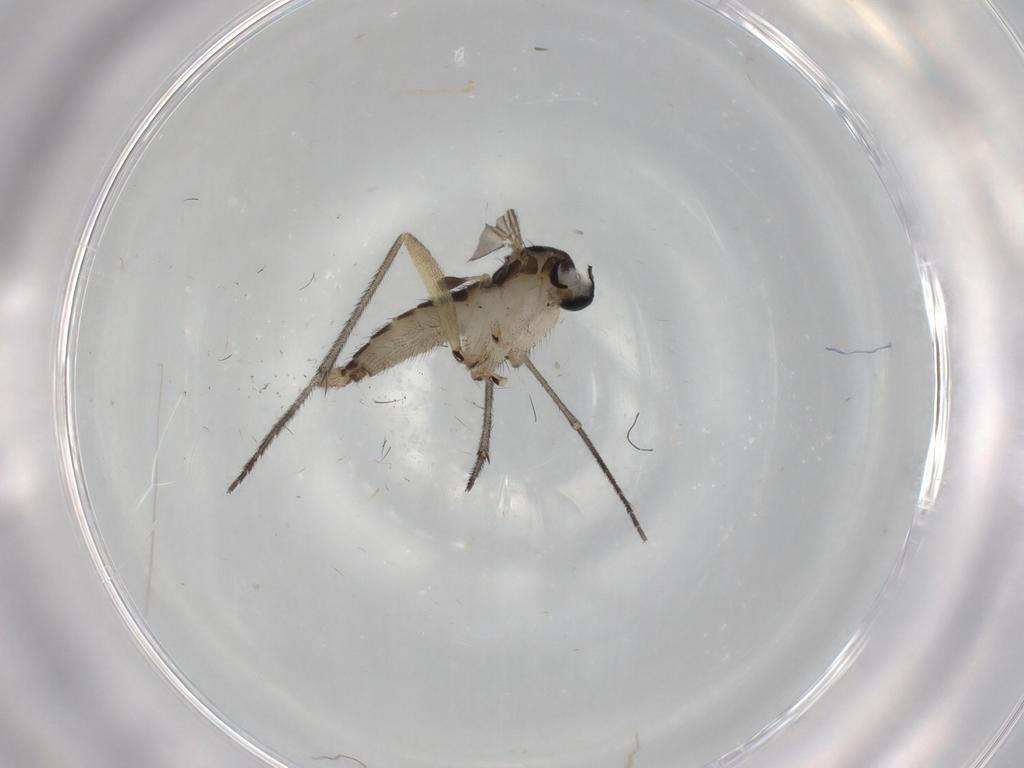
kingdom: Animalia
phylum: Arthropoda
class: Insecta
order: Diptera
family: Sciaridae
